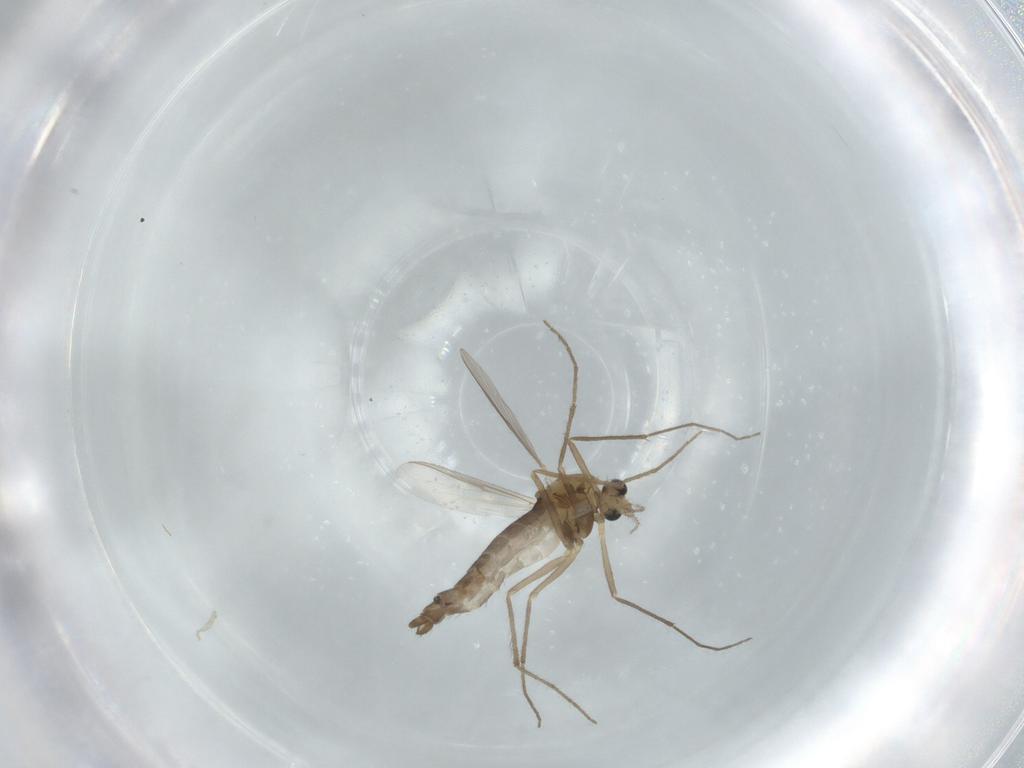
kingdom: Animalia
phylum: Arthropoda
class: Insecta
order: Diptera
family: Chironomidae
